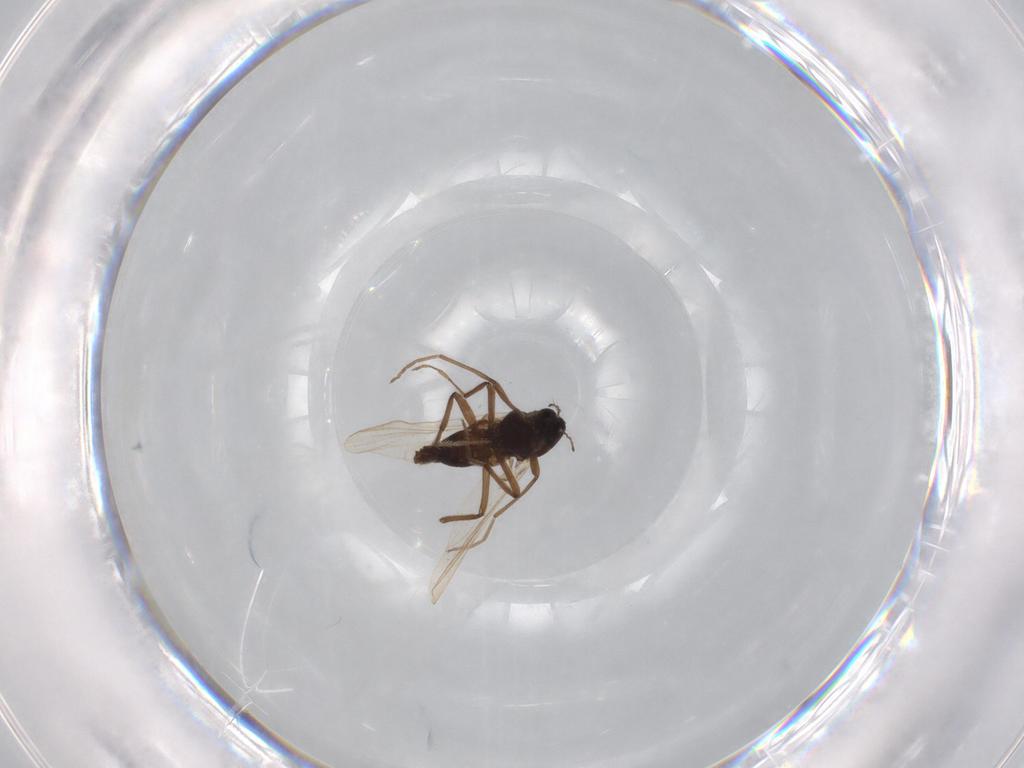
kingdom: Animalia
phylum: Arthropoda
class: Insecta
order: Diptera
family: Chironomidae
